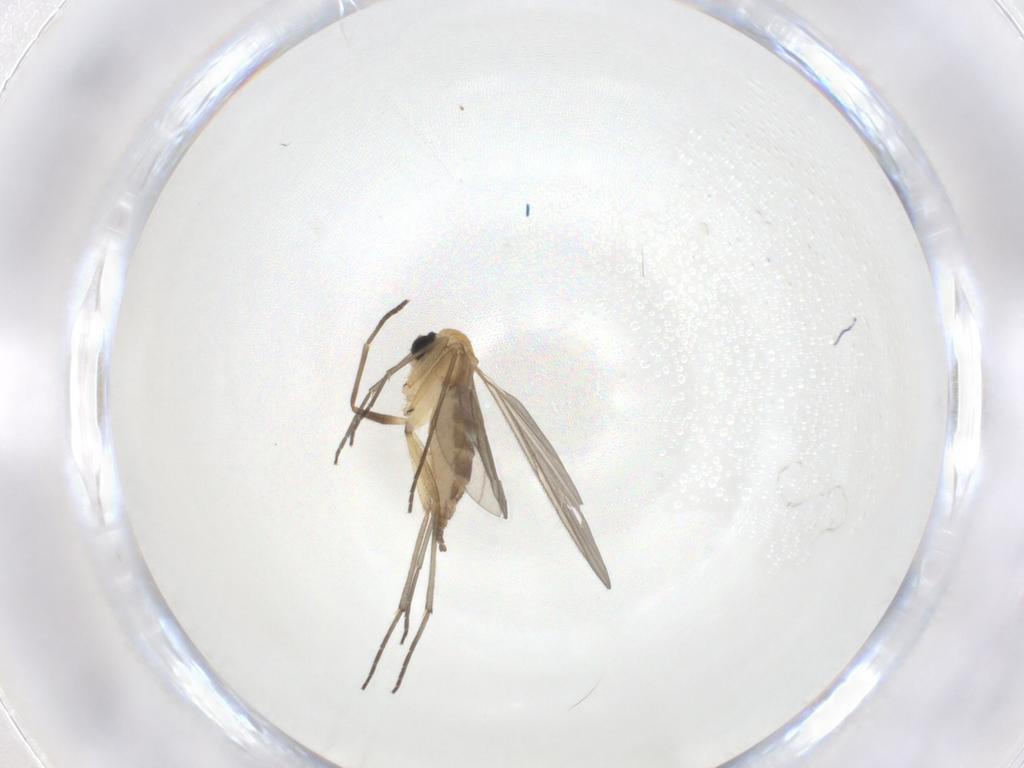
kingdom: Animalia
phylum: Arthropoda
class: Insecta
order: Diptera
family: Sciaridae
